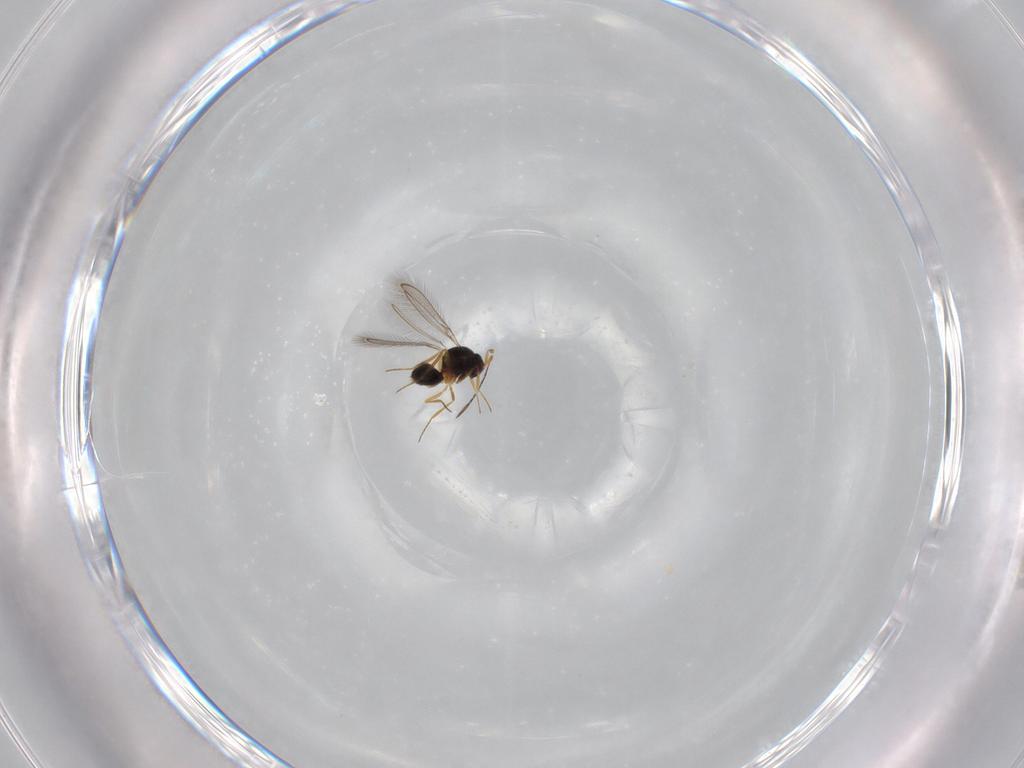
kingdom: Animalia
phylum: Arthropoda
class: Insecta
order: Hymenoptera
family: Mymaridae
